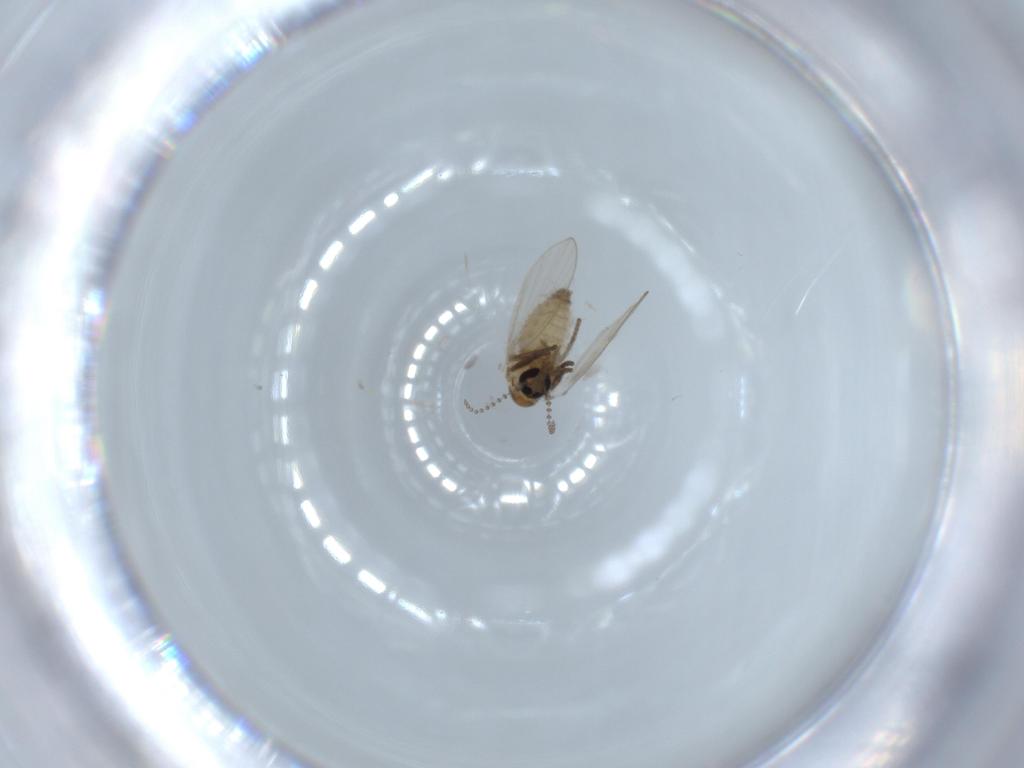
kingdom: Animalia
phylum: Arthropoda
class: Insecta
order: Diptera
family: Psychodidae
